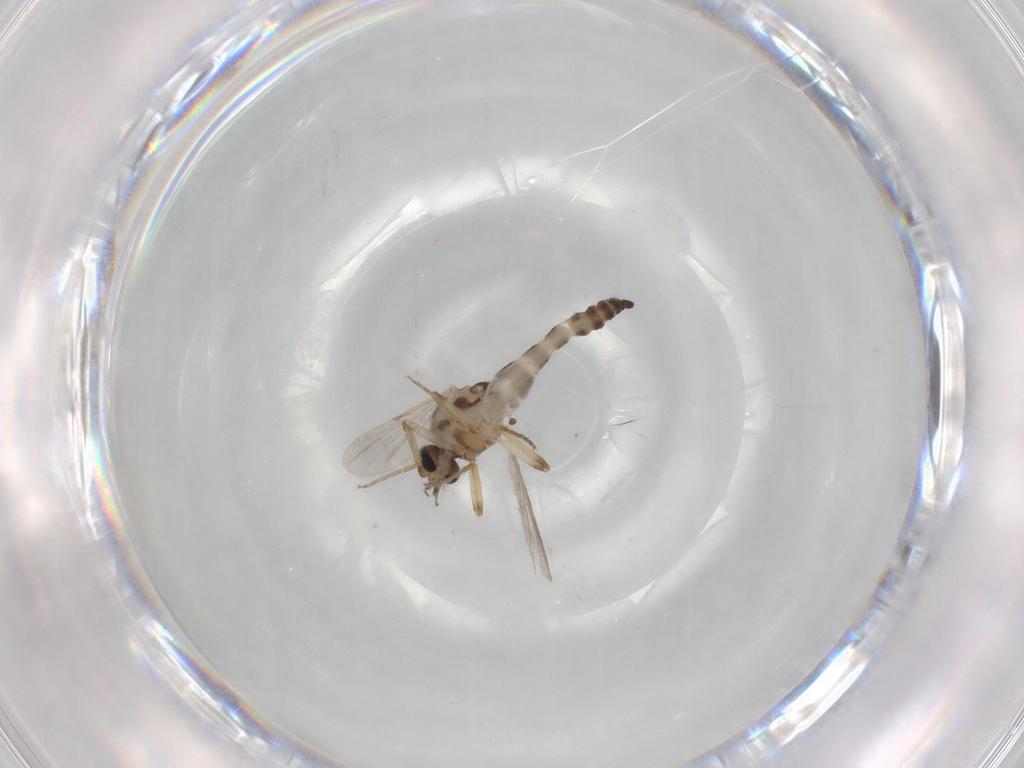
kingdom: Animalia
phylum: Arthropoda
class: Insecta
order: Diptera
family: Ceratopogonidae
